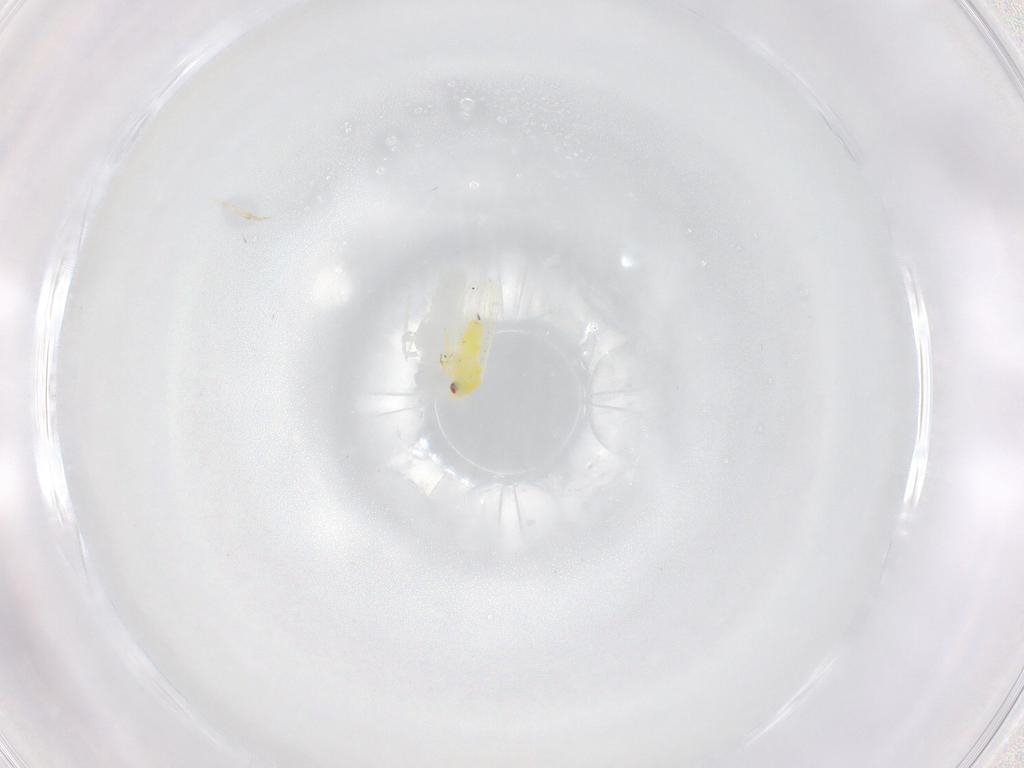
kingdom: Animalia
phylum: Arthropoda
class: Insecta
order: Hemiptera
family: Aleyrodidae
